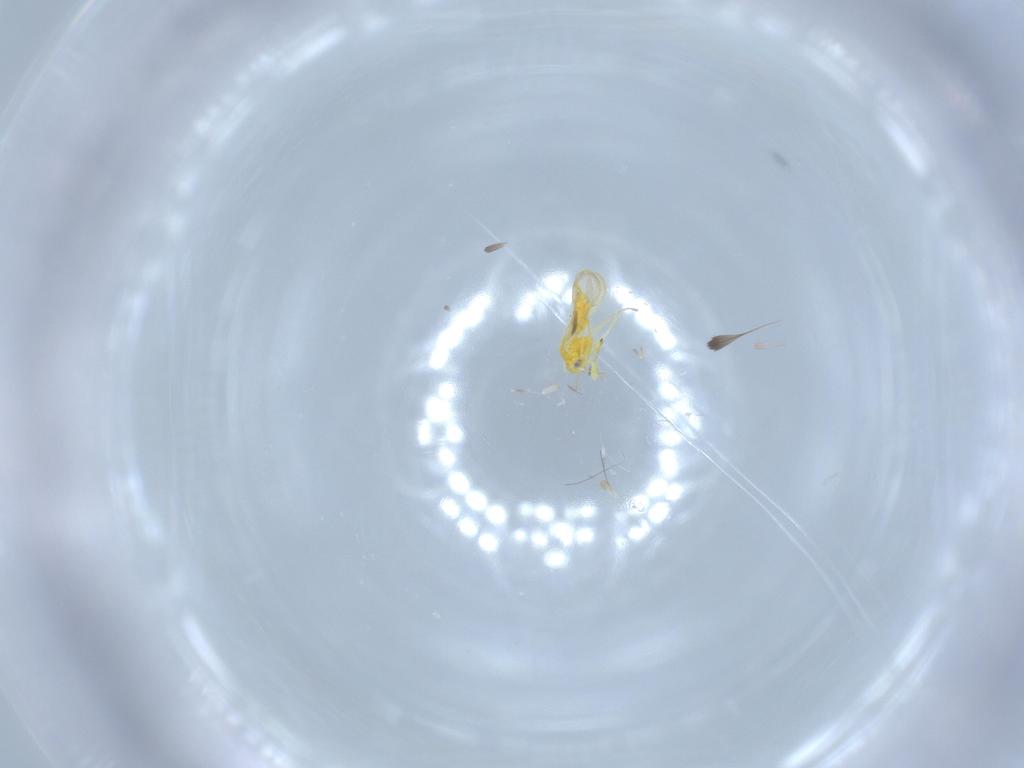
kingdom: Animalia
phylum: Arthropoda
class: Insecta
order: Hemiptera
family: Aleyrodidae
